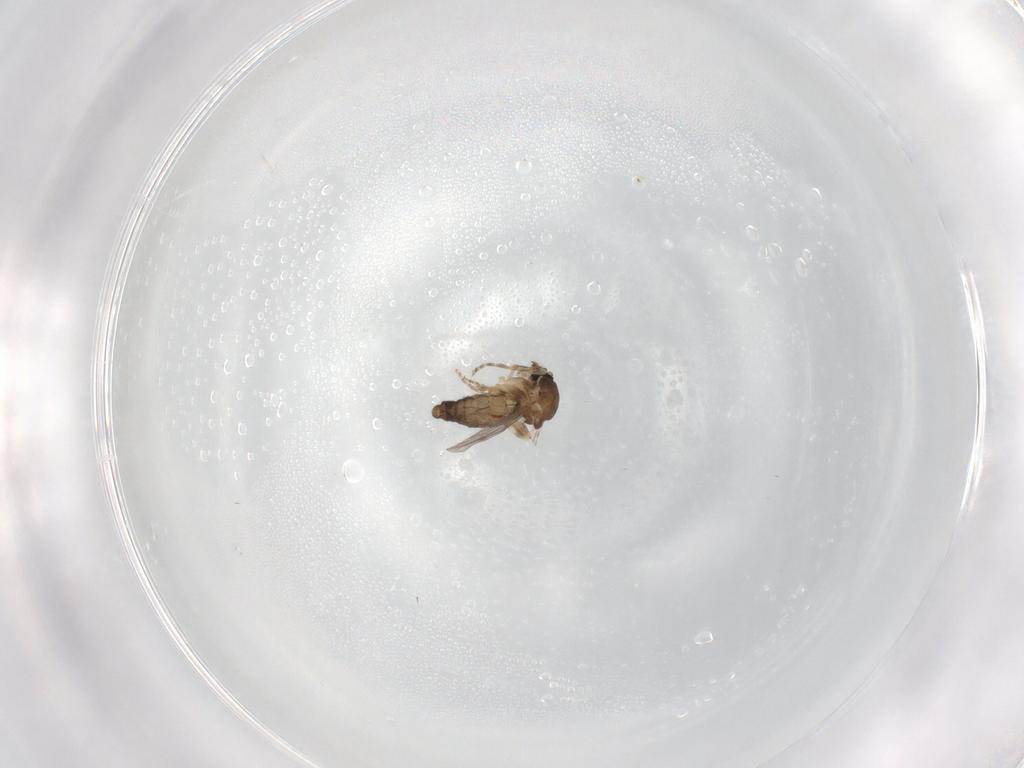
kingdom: Animalia
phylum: Arthropoda
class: Insecta
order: Diptera
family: Ceratopogonidae
